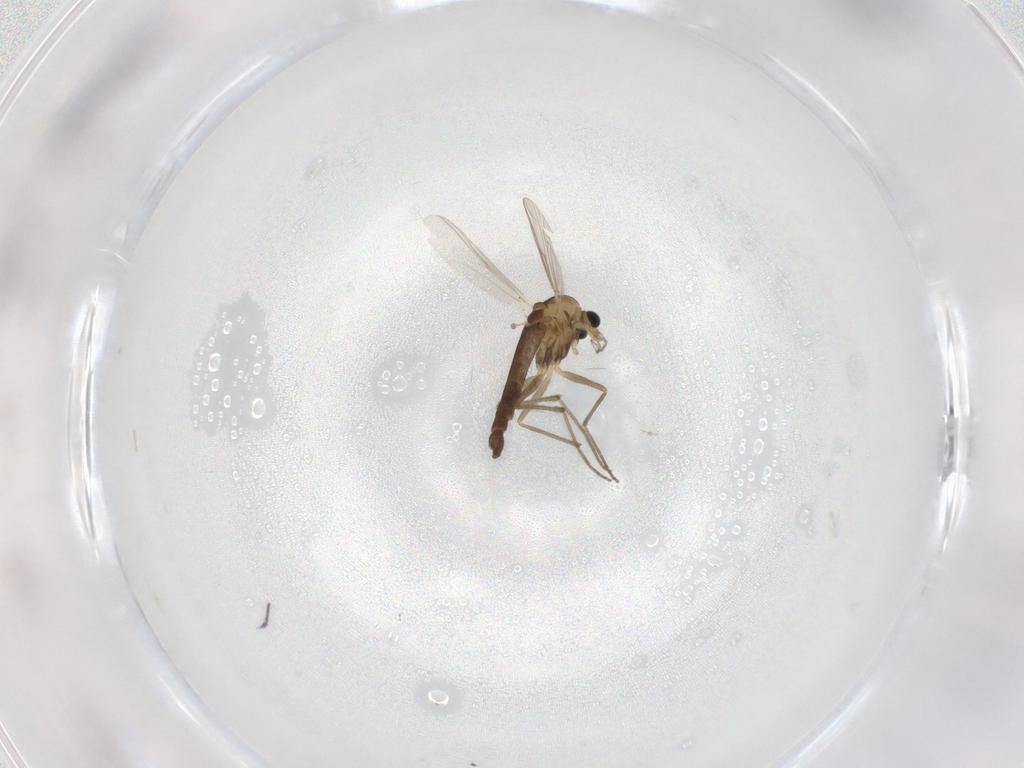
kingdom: Animalia
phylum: Arthropoda
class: Insecta
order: Diptera
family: Chironomidae
